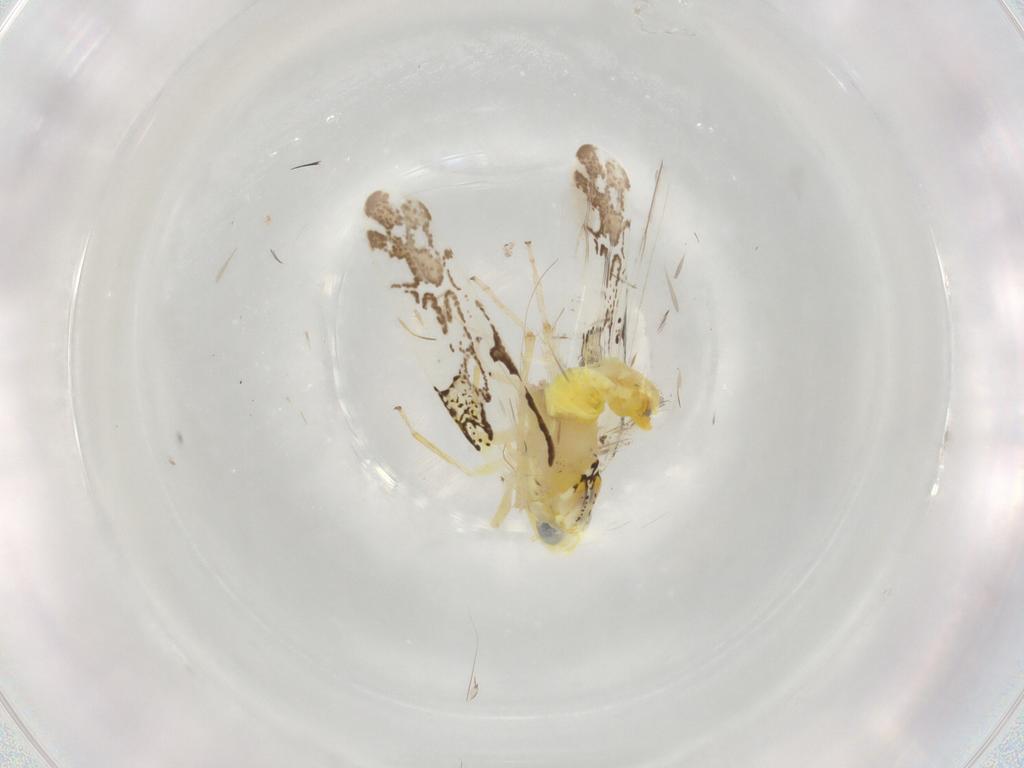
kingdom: Animalia
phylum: Arthropoda
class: Insecta
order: Hemiptera
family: Cicadellidae
